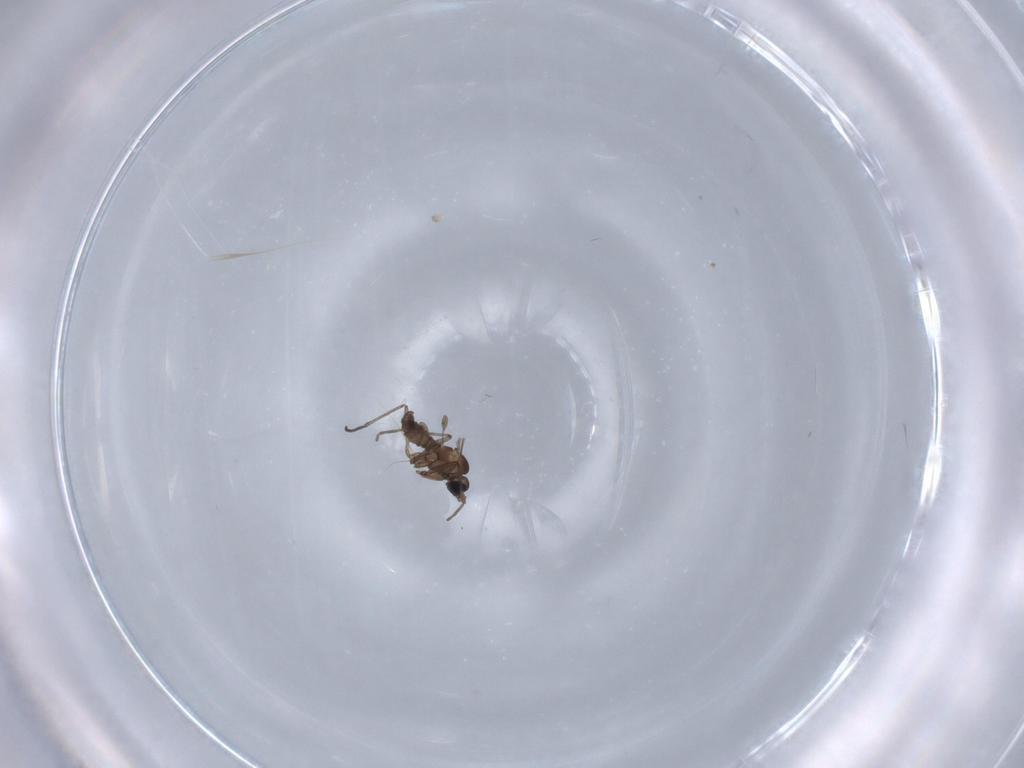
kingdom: Animalia
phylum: Arthropoda
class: Insecta
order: Diptera
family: Cecidomyiidae
